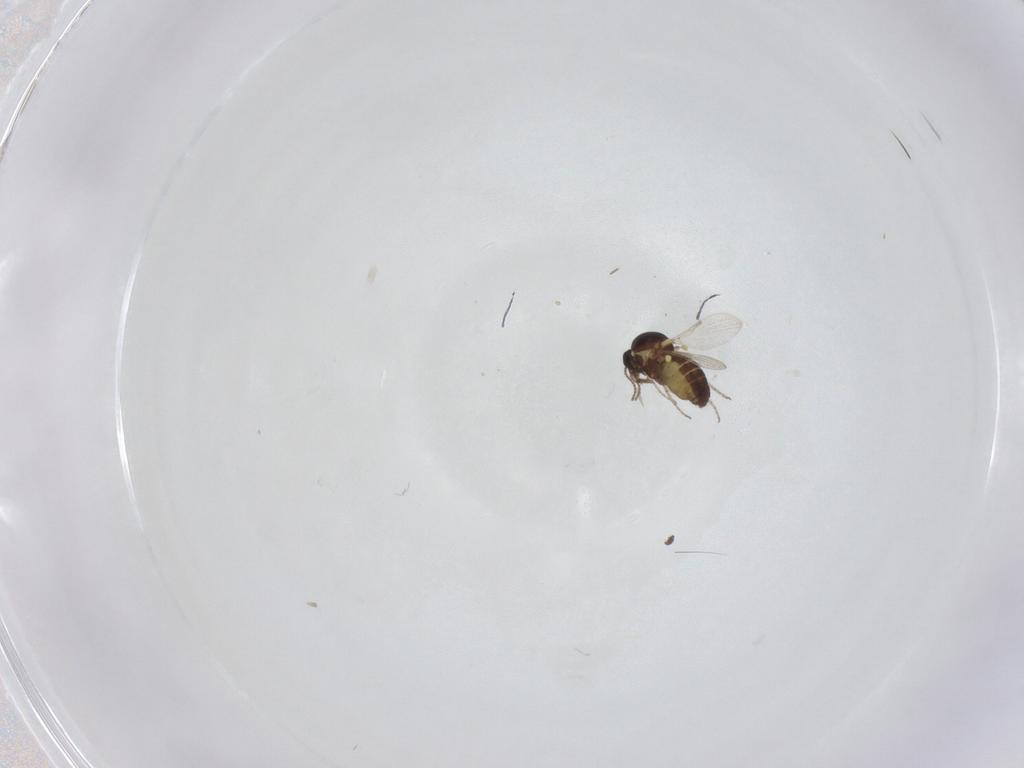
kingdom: Animalia
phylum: Arthropoda
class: Insecta
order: Diptera
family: Ceratopogonidae
